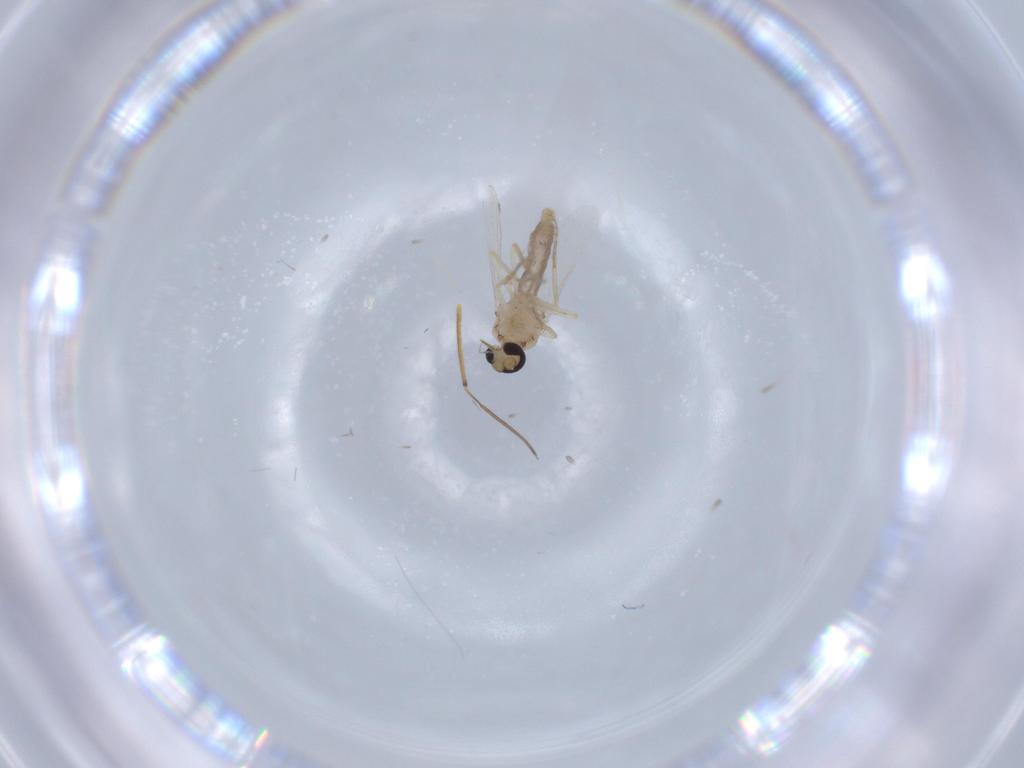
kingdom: Animalia
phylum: Arthropoda
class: Insecta
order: Diptera
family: Ceratopogonidae
